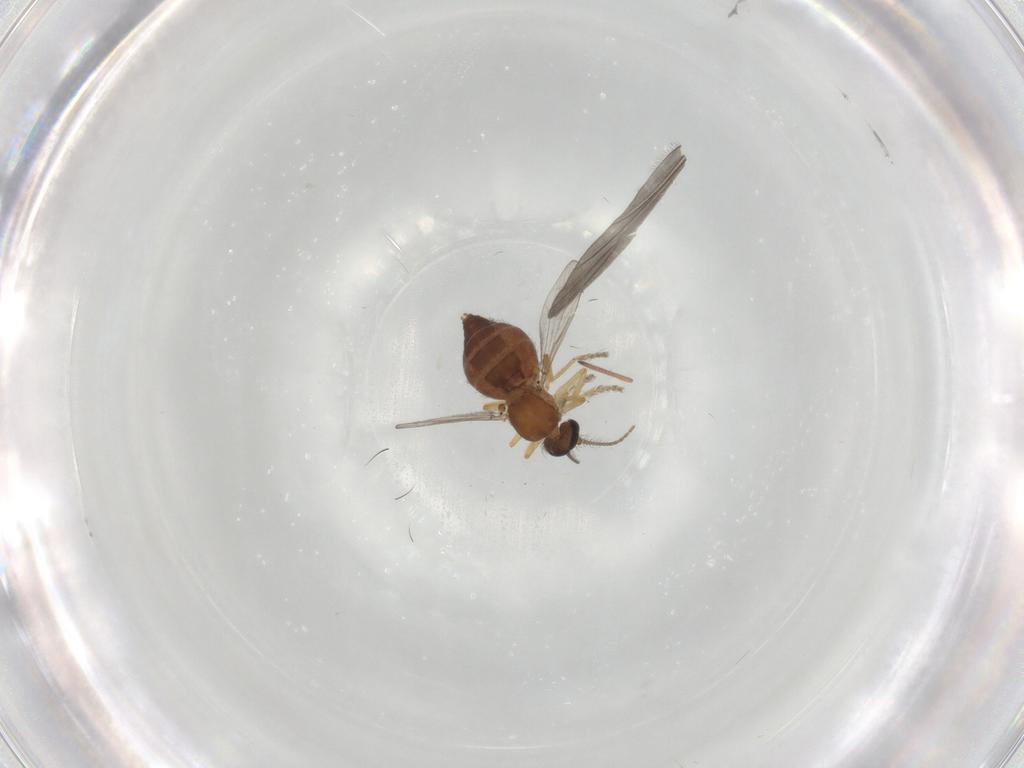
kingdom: Animalia
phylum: Arthropoda
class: Insecta
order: Diptera
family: Ceratopogonidae
